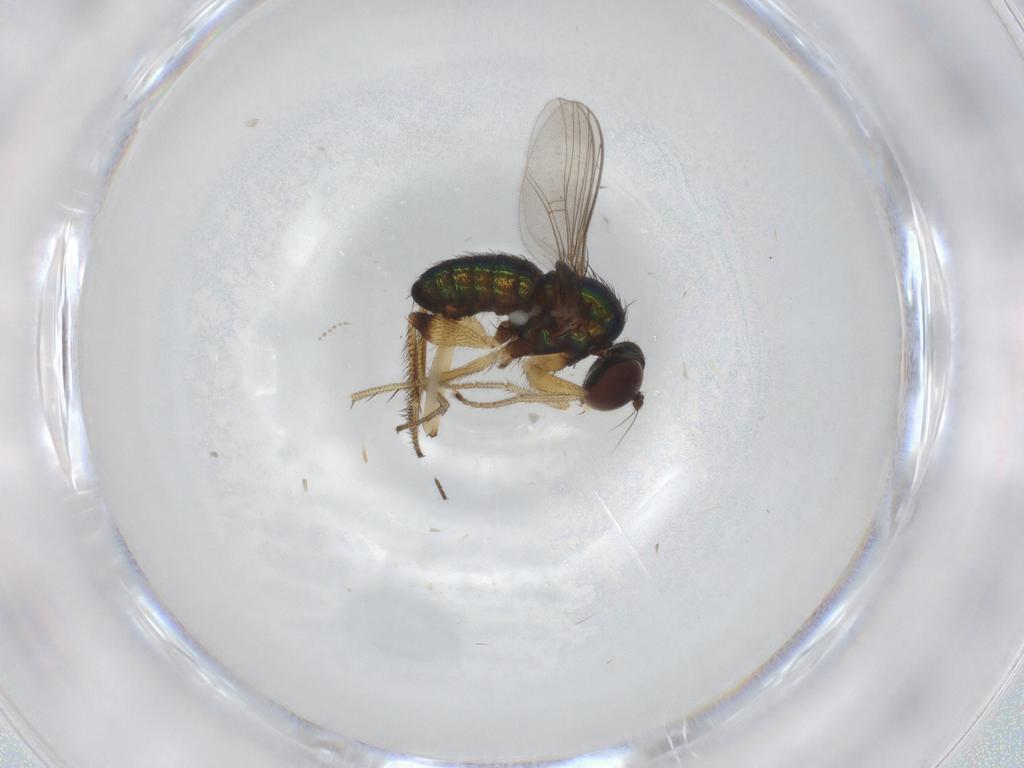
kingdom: Animalia
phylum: Arthropoda
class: Insecta
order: Diptera
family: Dolichopodidae
